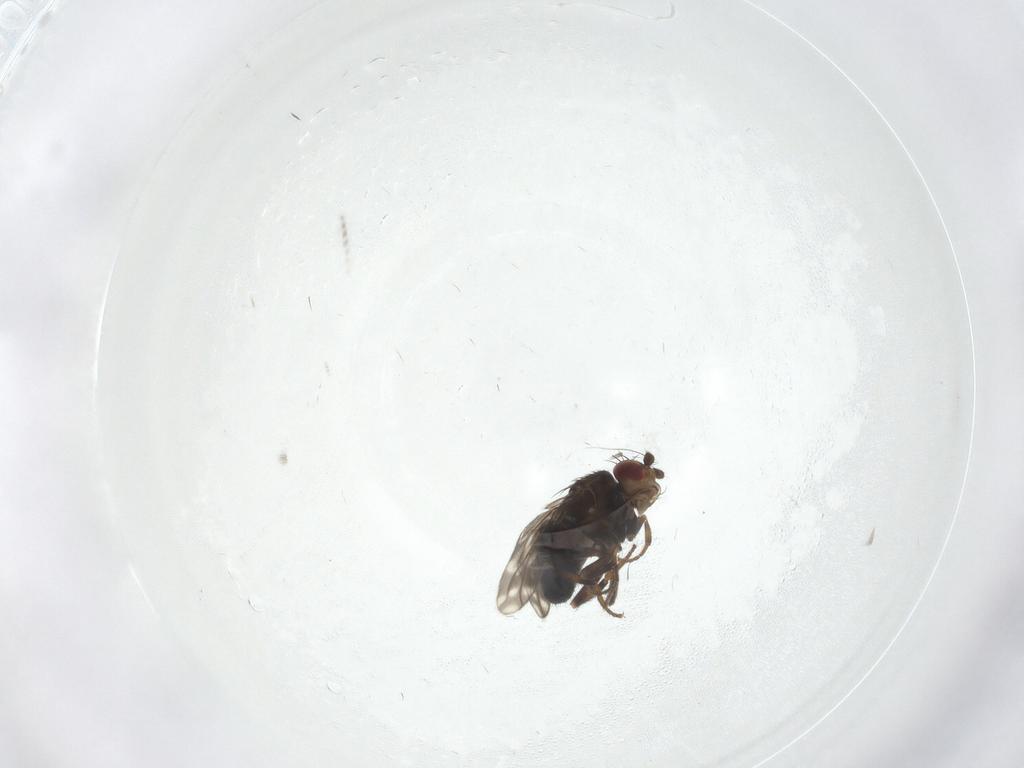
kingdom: Animalia
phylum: Arthropoda
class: Insecta
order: Diptera
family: Sphaeroceridae
